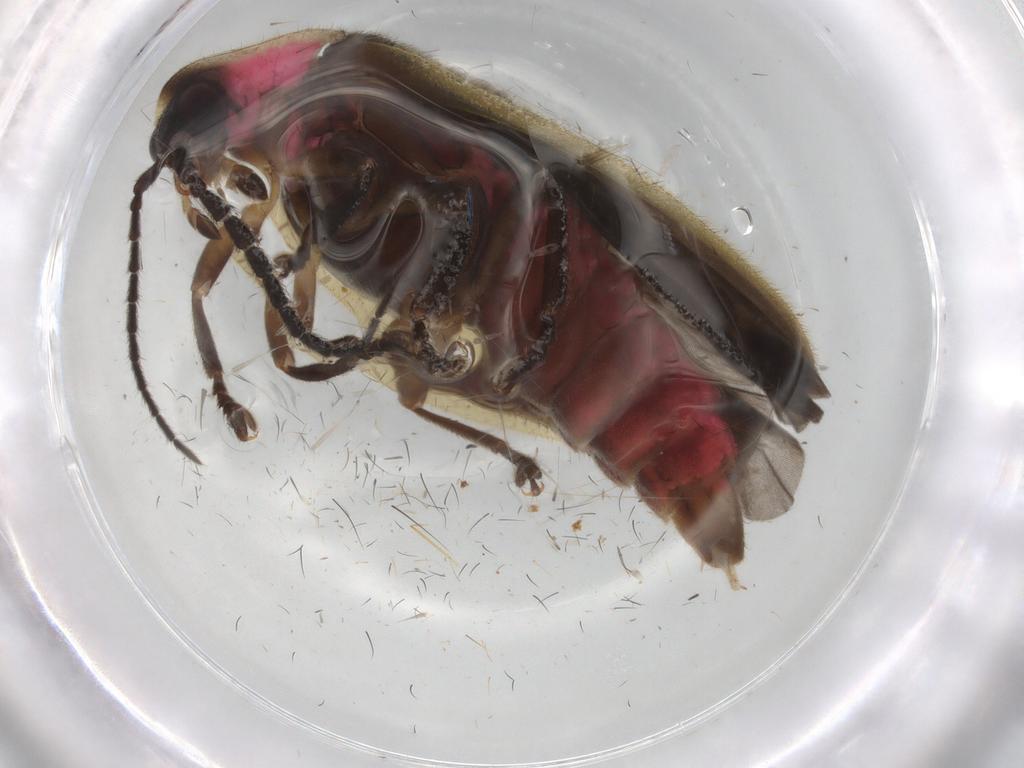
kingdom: Animalia
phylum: Arthropoda
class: Insecta
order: Coleoptera
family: Lampyridae
